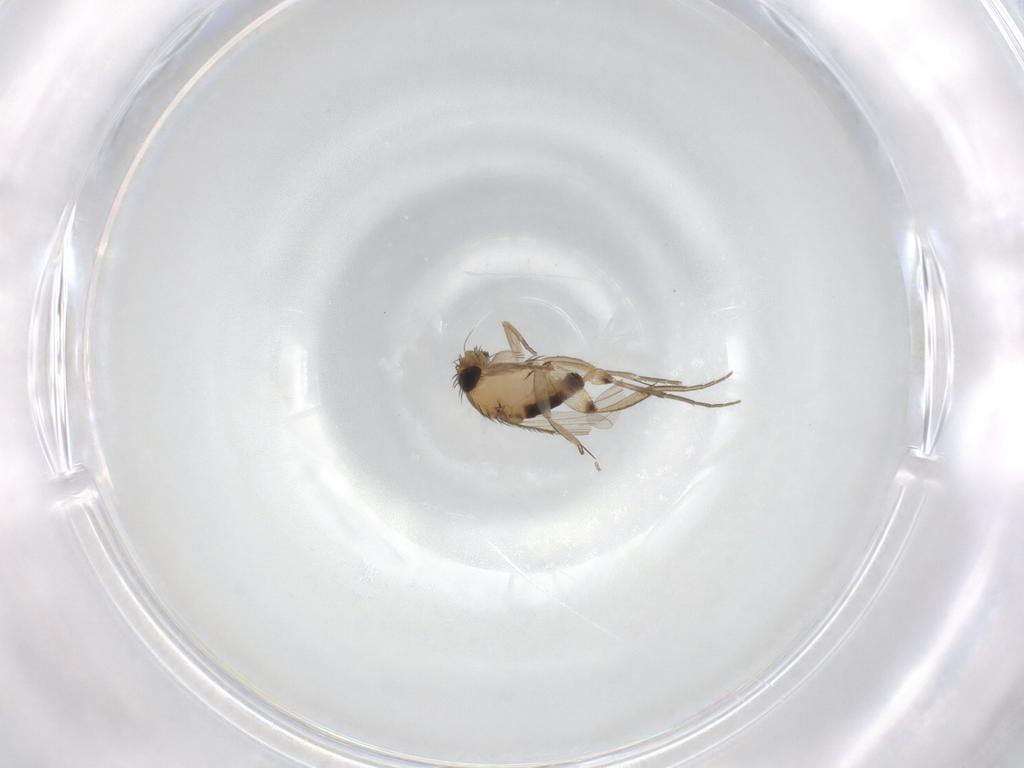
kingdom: Animalia
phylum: Arthropoda
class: Insecta
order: Diptera
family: Phoridae
